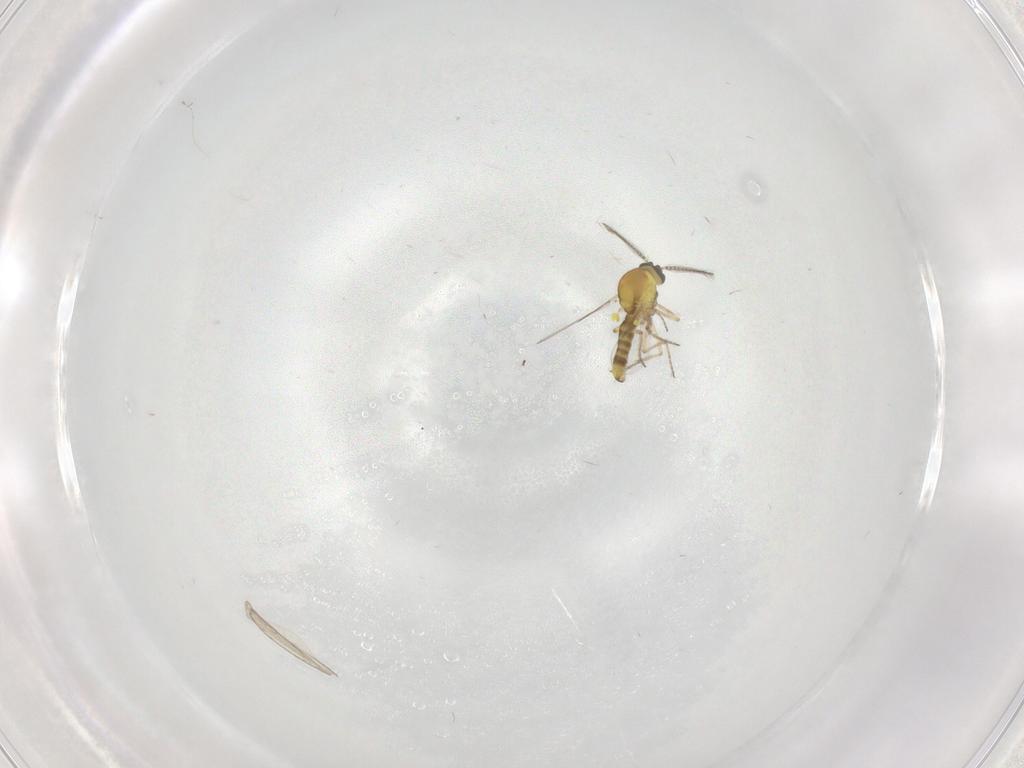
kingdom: Animalia
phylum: Arthropoda
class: Insecta
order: Diptera
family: Cecidomyiidae
